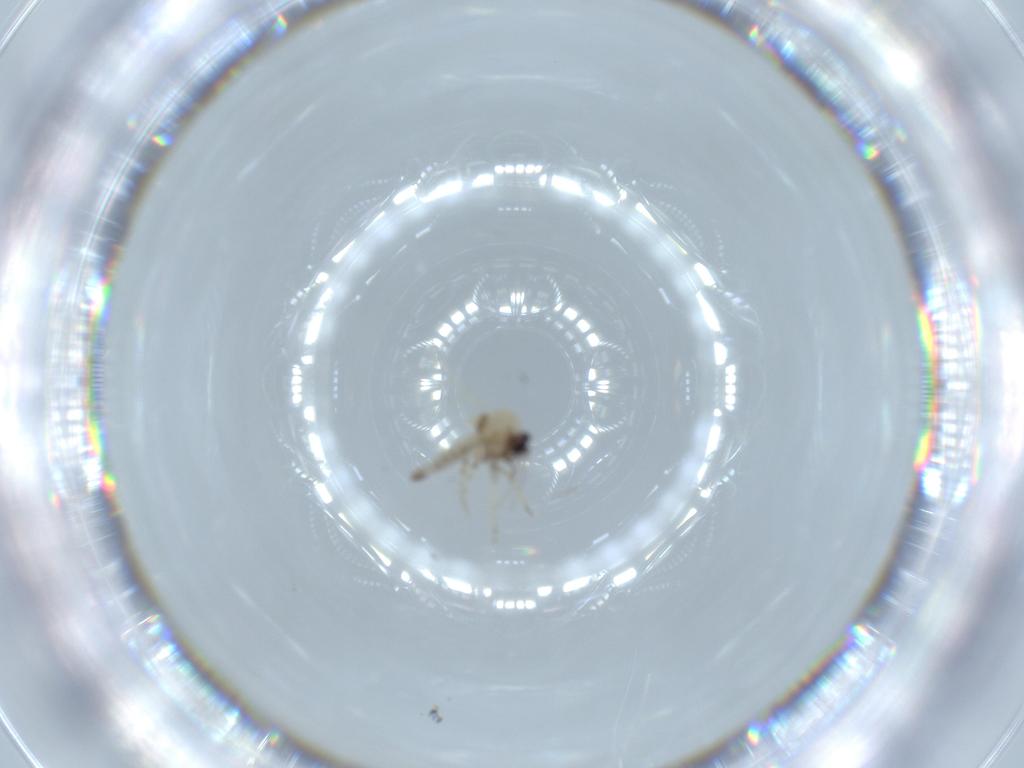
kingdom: Animalia
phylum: Arthropoda
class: Insecta
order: Diptera
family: Ceratopogonidae
